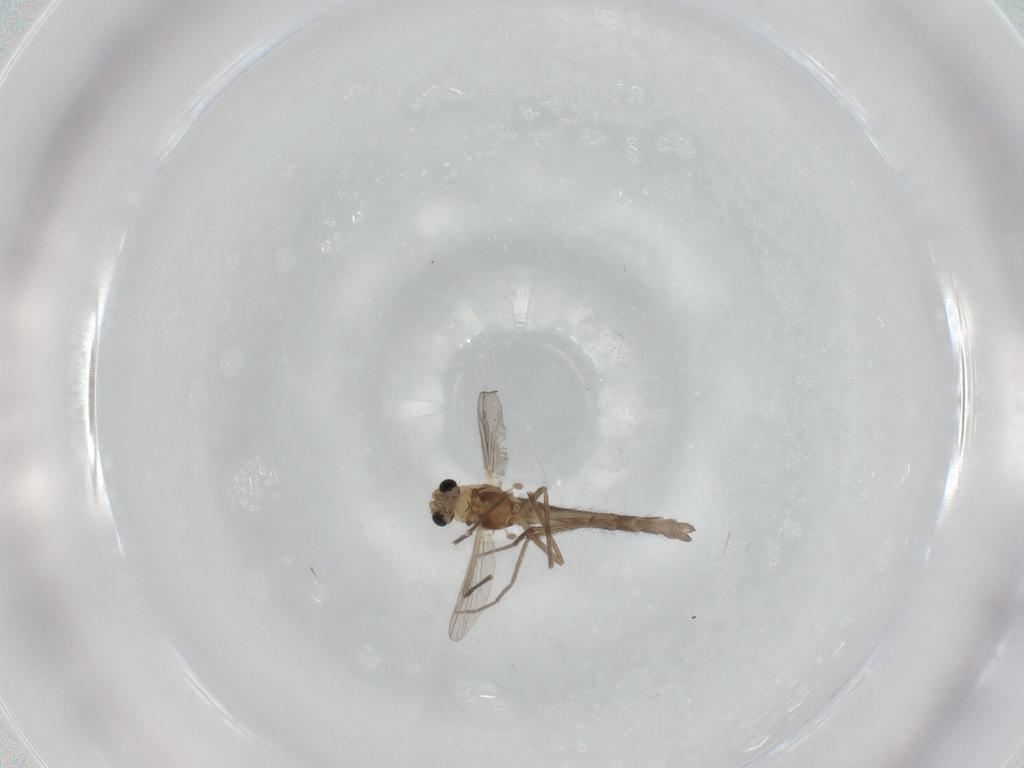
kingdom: Animalia
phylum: Arthropoda
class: Insecta
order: Diptera
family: Chironomidae
